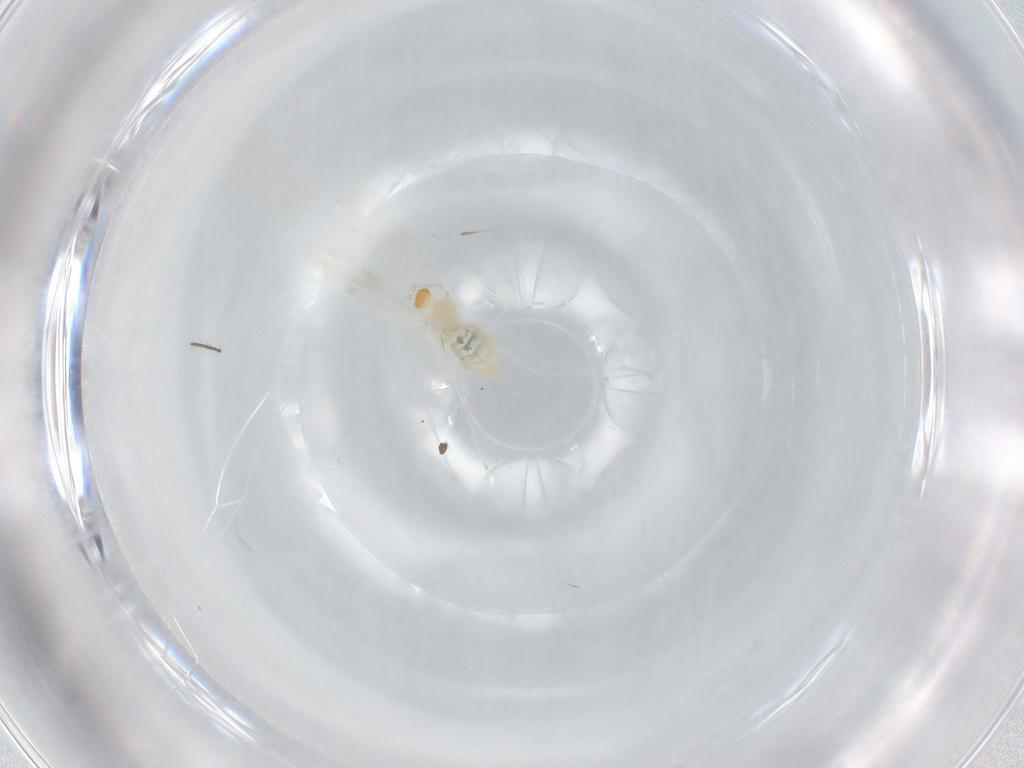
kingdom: Animalia
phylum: Arthropoda
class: Insecta
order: Diptera
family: Cecidomyiidae
